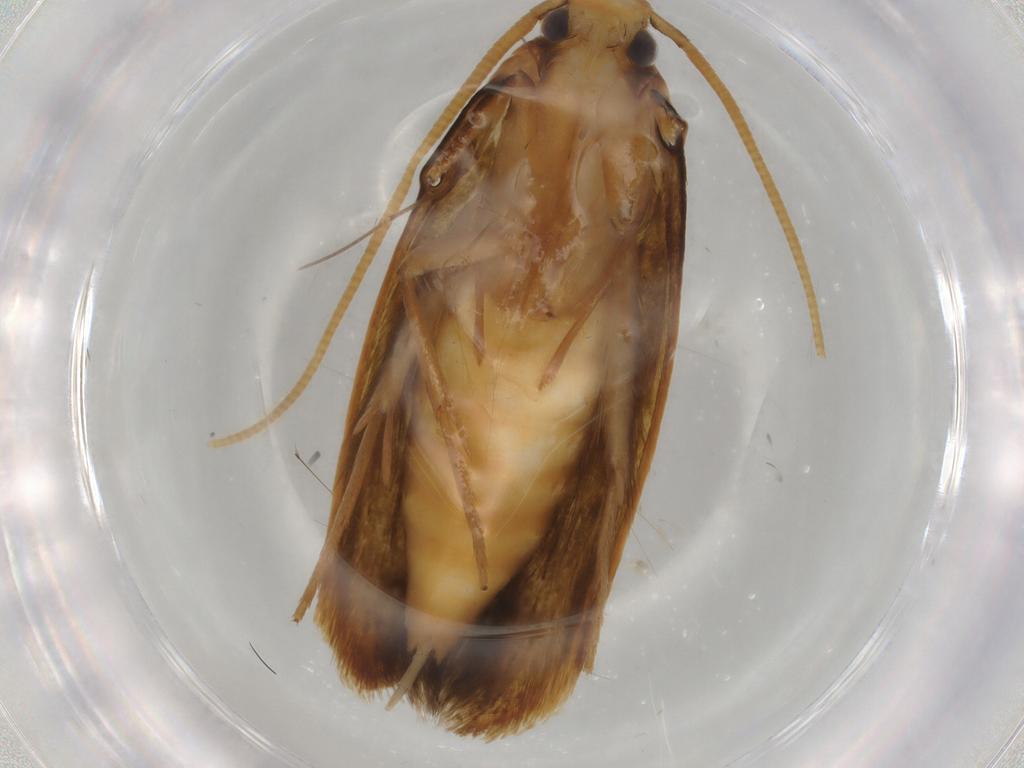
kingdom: Animalia
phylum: Arthropoda
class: Insecta
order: Lepidoptera
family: Tineidae
